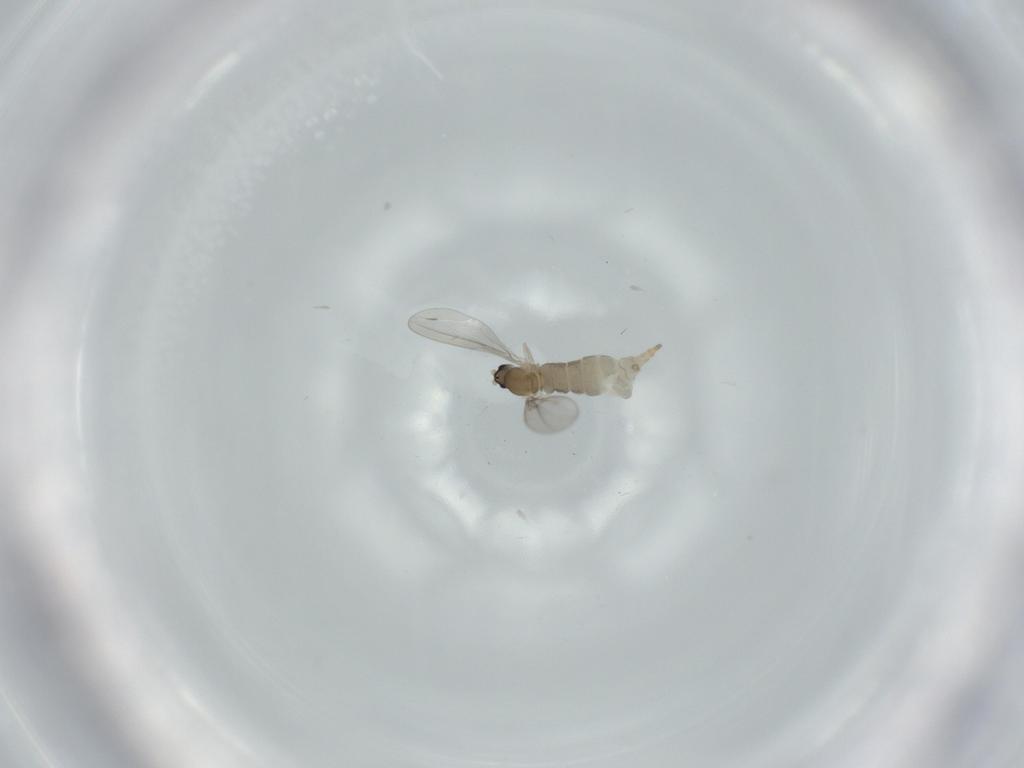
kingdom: Animalia
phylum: Arthropoda
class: Insecta
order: Diptera
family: Cecidomyiidae
